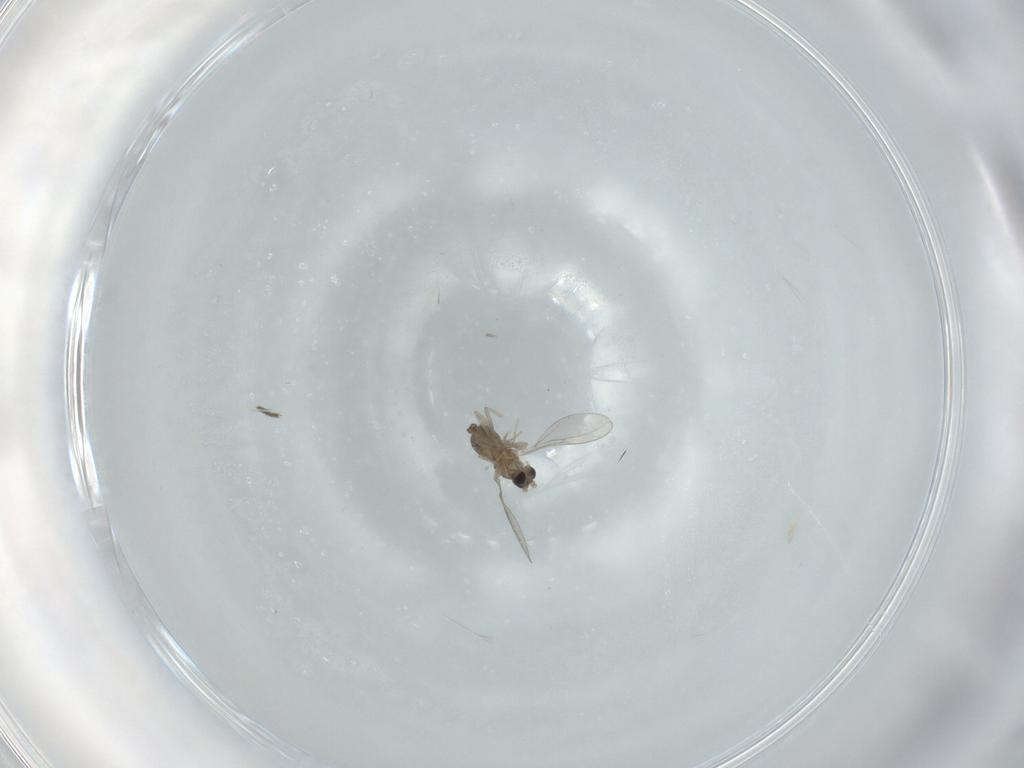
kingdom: Animalia
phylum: Arthropoda
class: Insecta
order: Diptera
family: Cecidomyiidae
